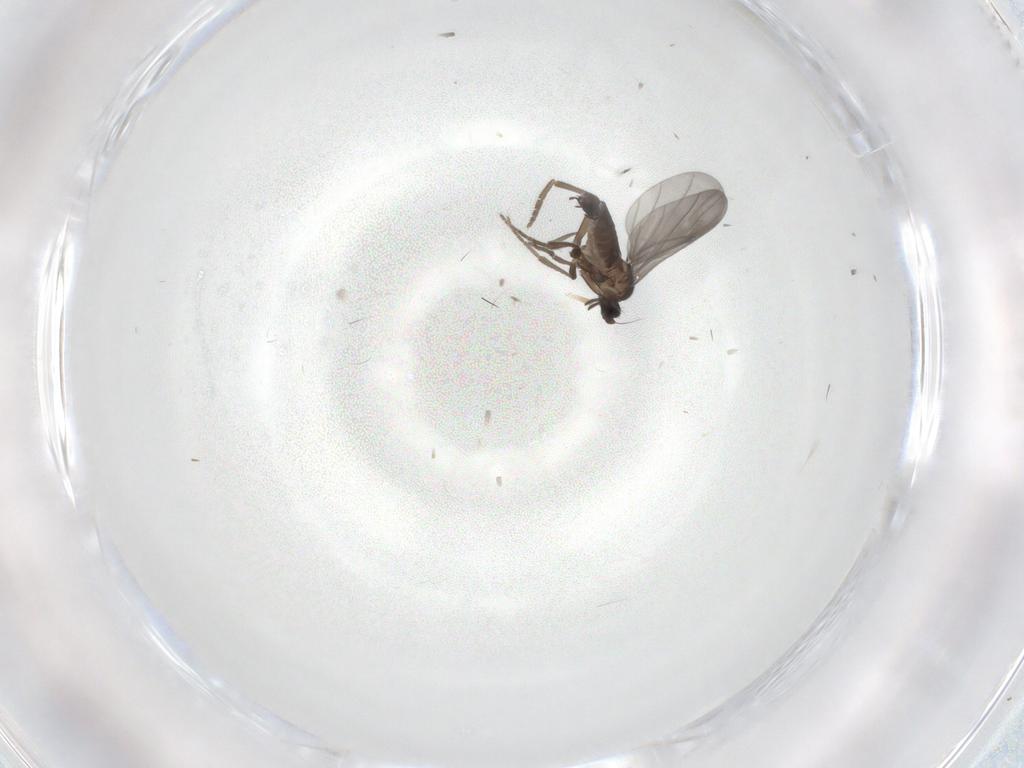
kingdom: Animalia
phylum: Arthropoda
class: Insecta
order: Diptera
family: Phoridae
